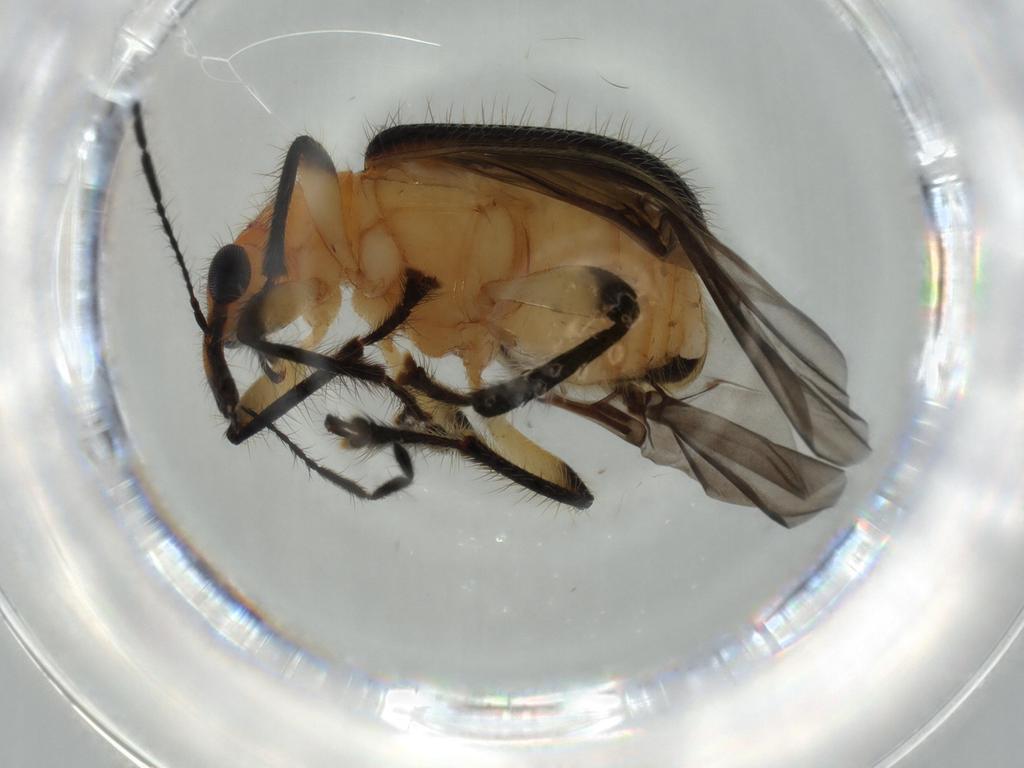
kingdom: Animalia
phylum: Arthropoda
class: Insecta
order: Coleoptera
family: Attelabidae
